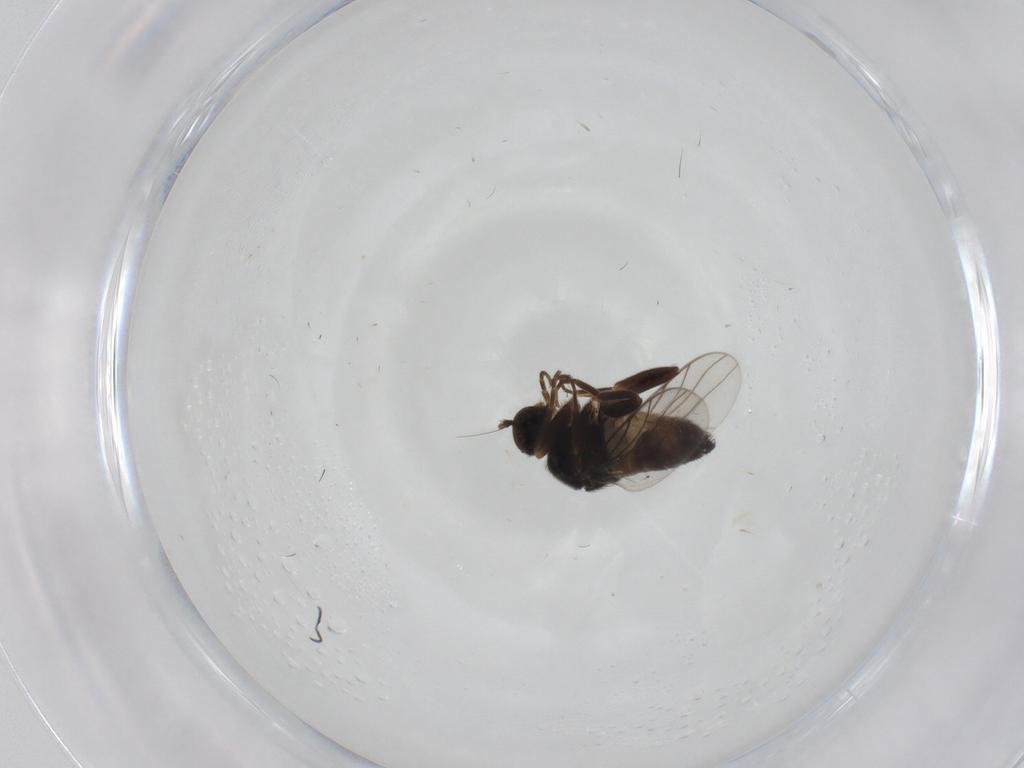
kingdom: Animalia
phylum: Arthropoda
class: Insecta
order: Diptera
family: Hybotidae
